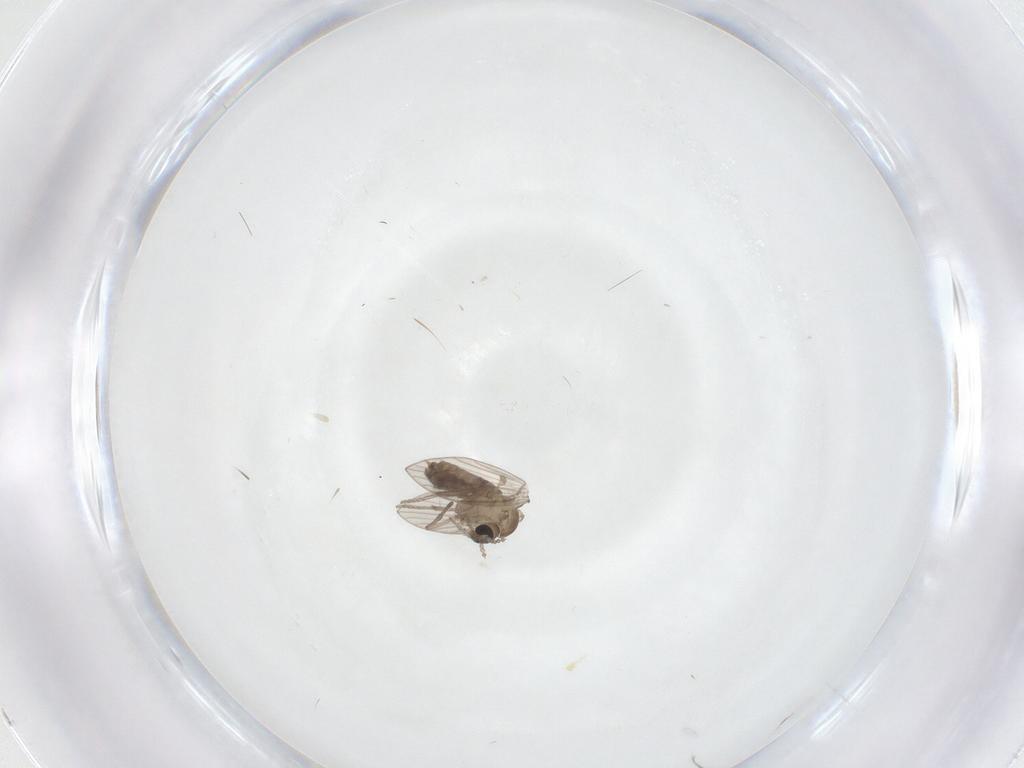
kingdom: Animalia
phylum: Arthropoda
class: Insecta
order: Diptera
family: Psychodidae
